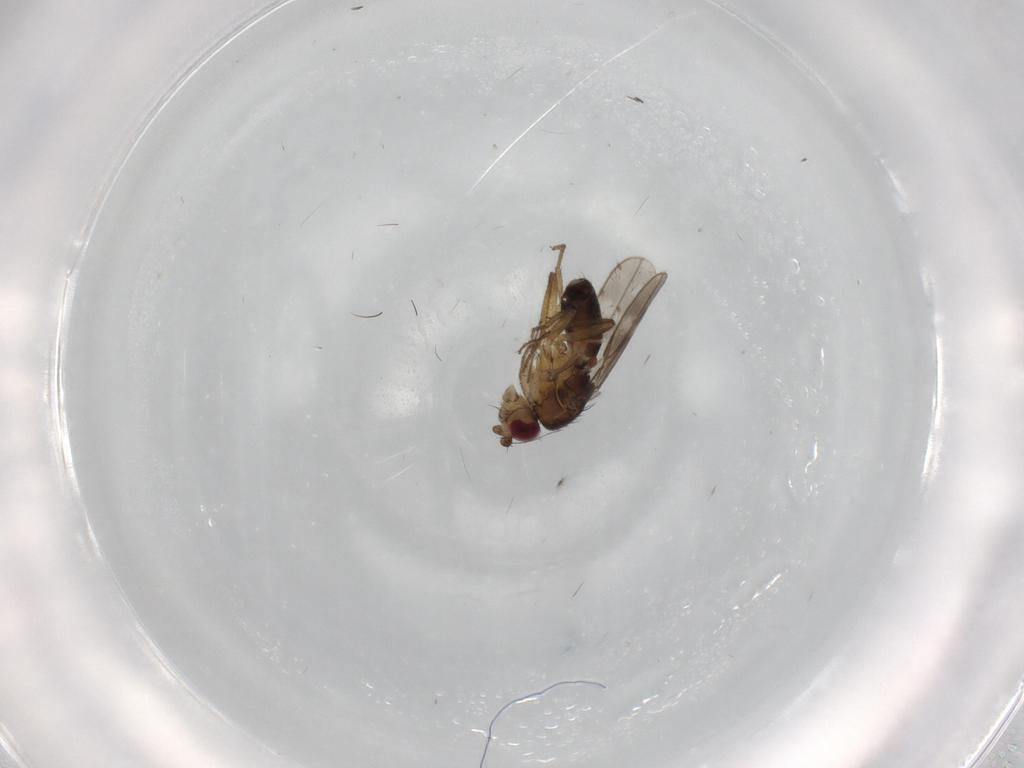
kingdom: Animalia
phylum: Arthropoda
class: Insecta
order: Diptera
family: Sphaeroceridae
